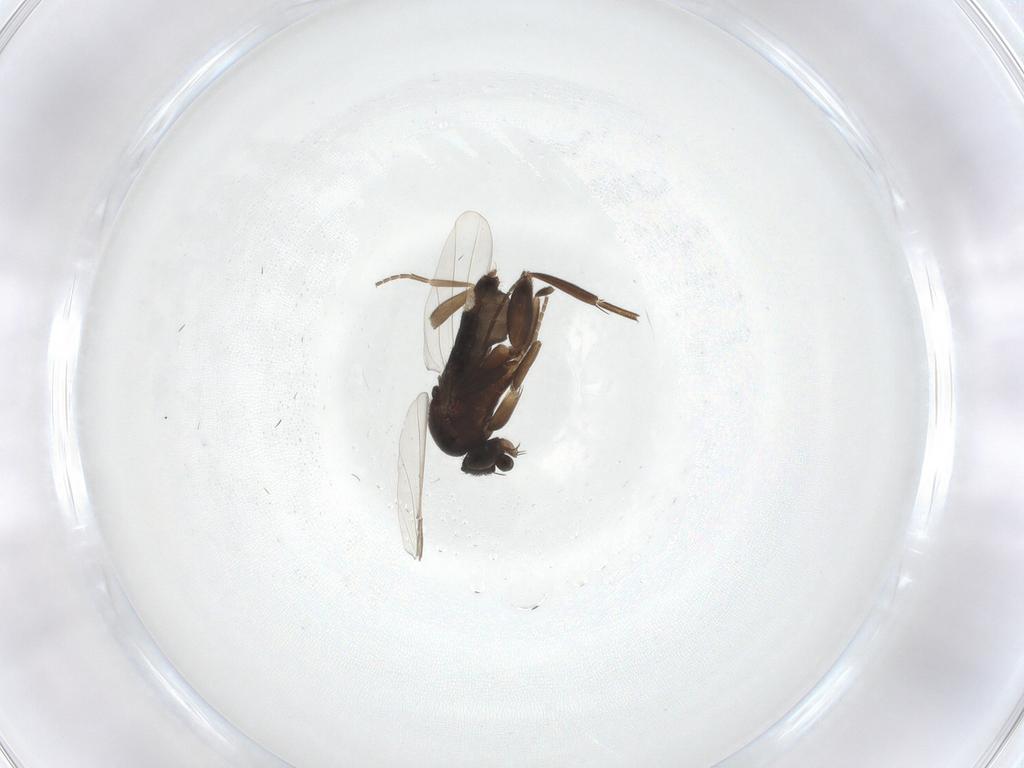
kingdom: Animalia
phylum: Arthropoda
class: Insecta
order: Diptera
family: Phoridae
